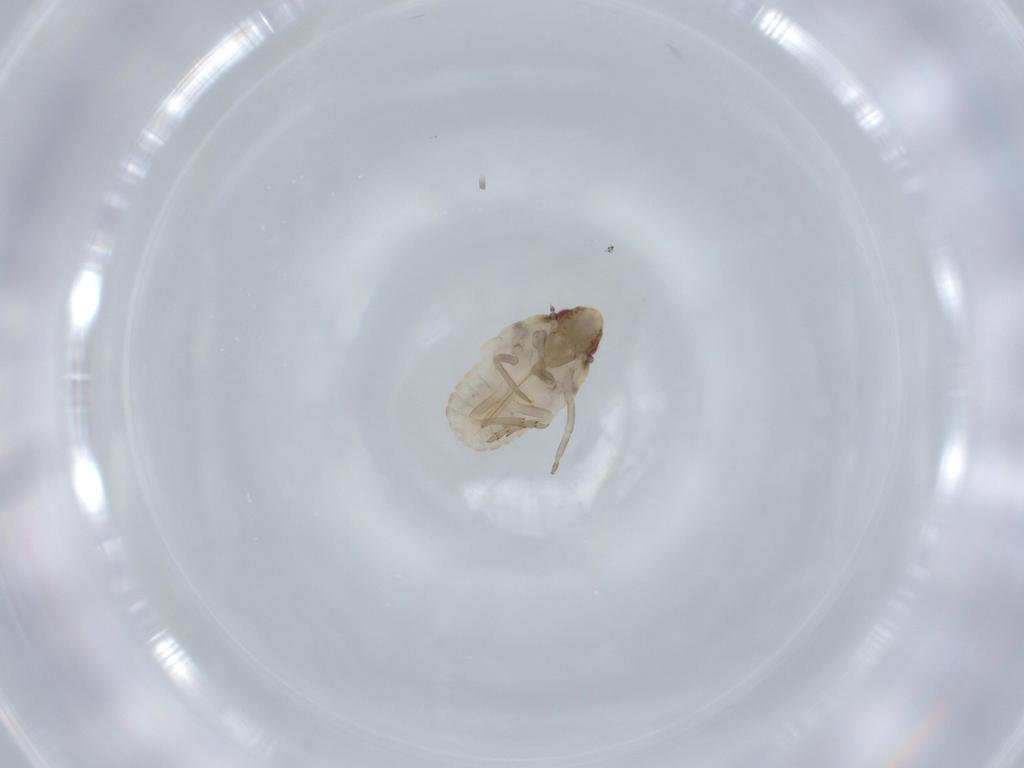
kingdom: Animalia
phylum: Arthropoda
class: Insecta
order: Hemiptera
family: Flatidae
